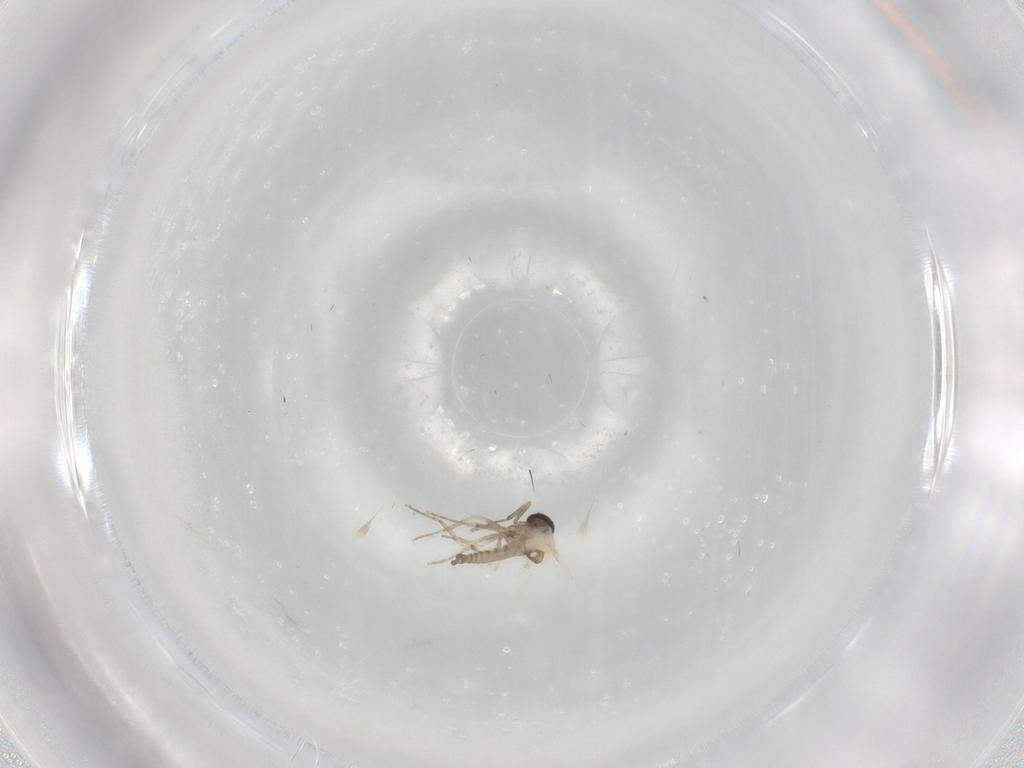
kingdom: Animalia
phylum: Arthropoda
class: Insecta
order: Diptera
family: Ceratopogonidae
